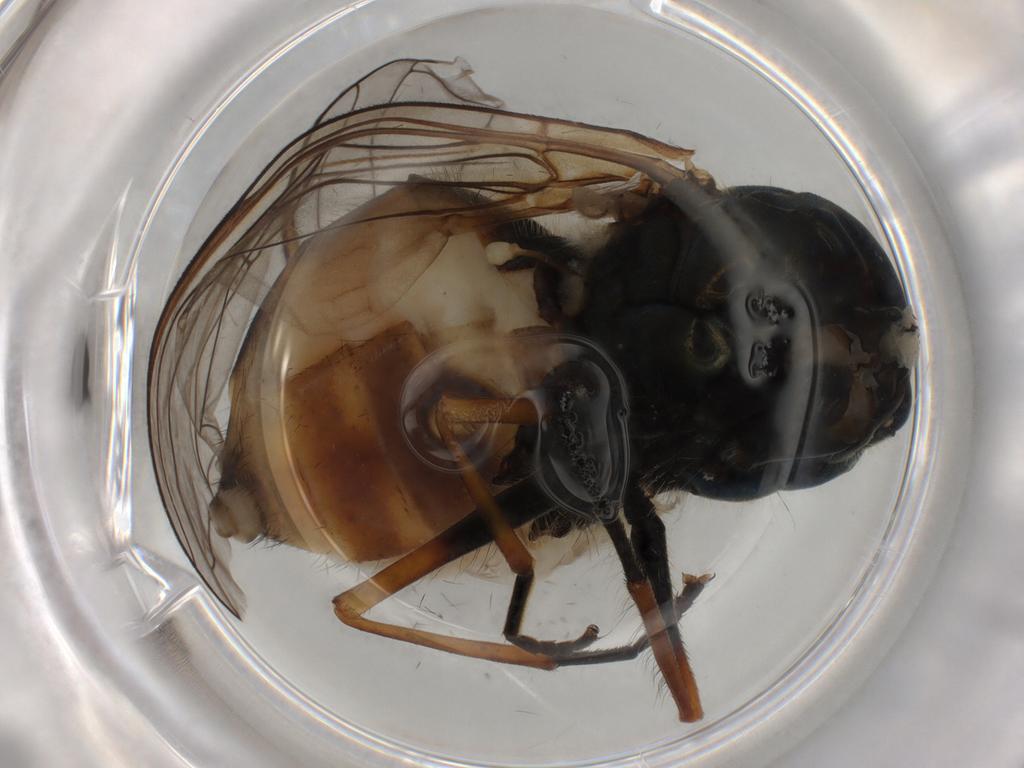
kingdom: Animalia
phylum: Arthropoda
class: Insecta
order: Diptera
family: Syrphidae
